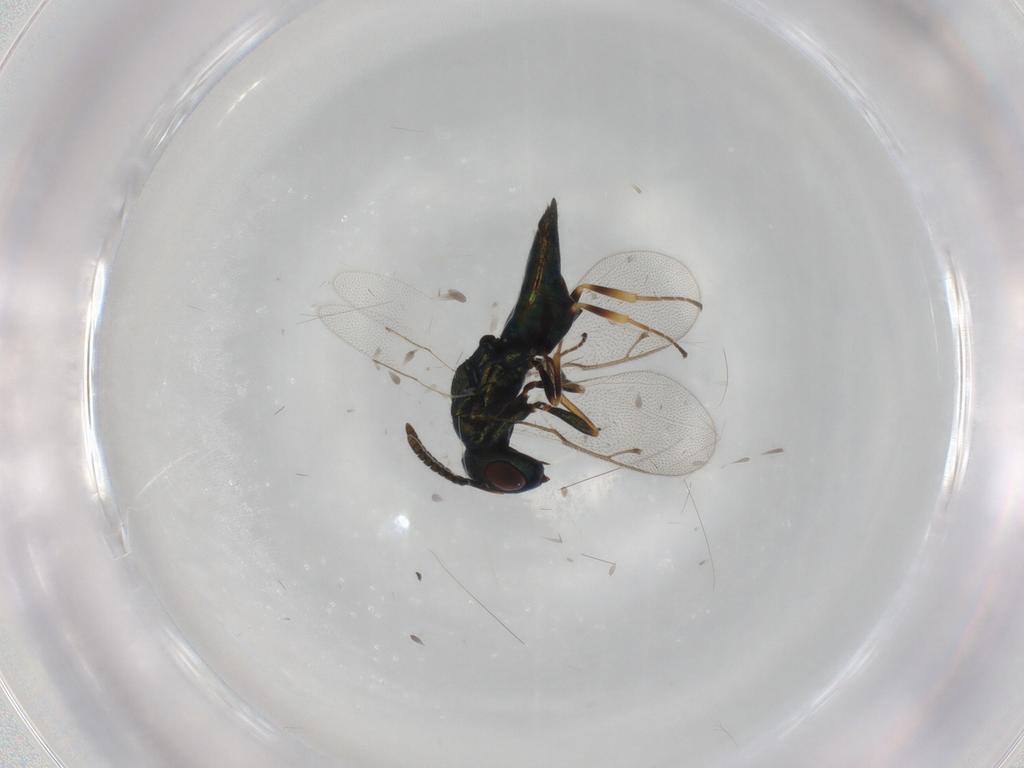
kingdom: Animalia
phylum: Arthropoda
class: Insecta
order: Hymenoptera
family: Pteromalidae
